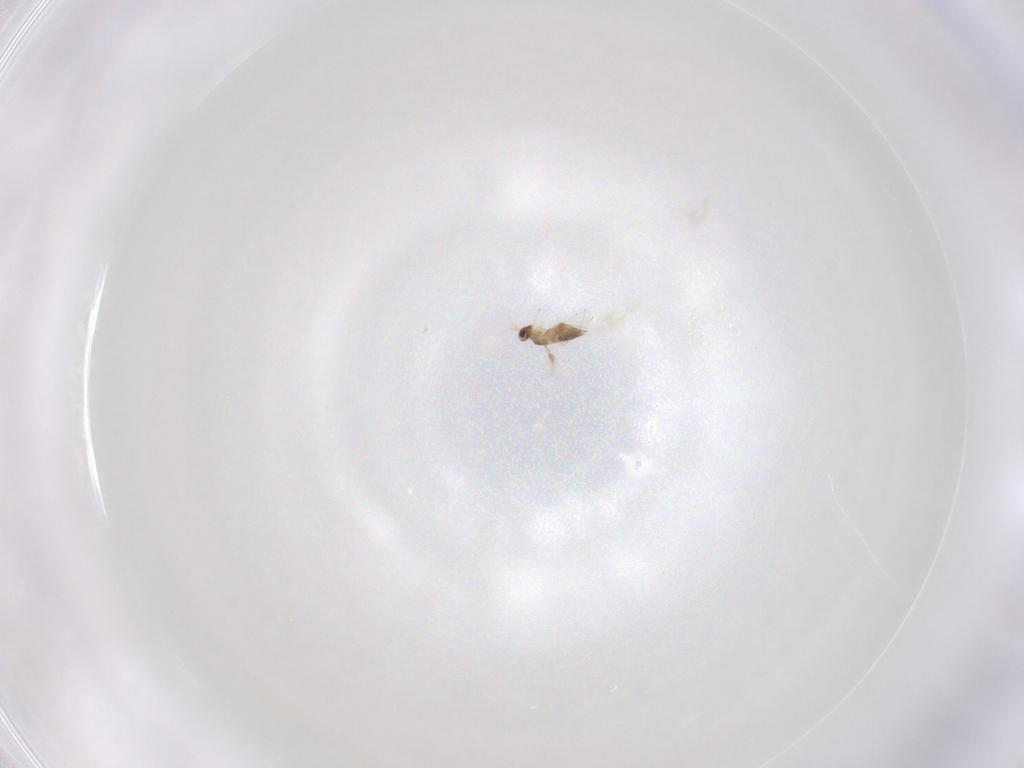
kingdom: Animalia
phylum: Arthropoda
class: Insecta
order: Hymenoptera
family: Mymaridae
